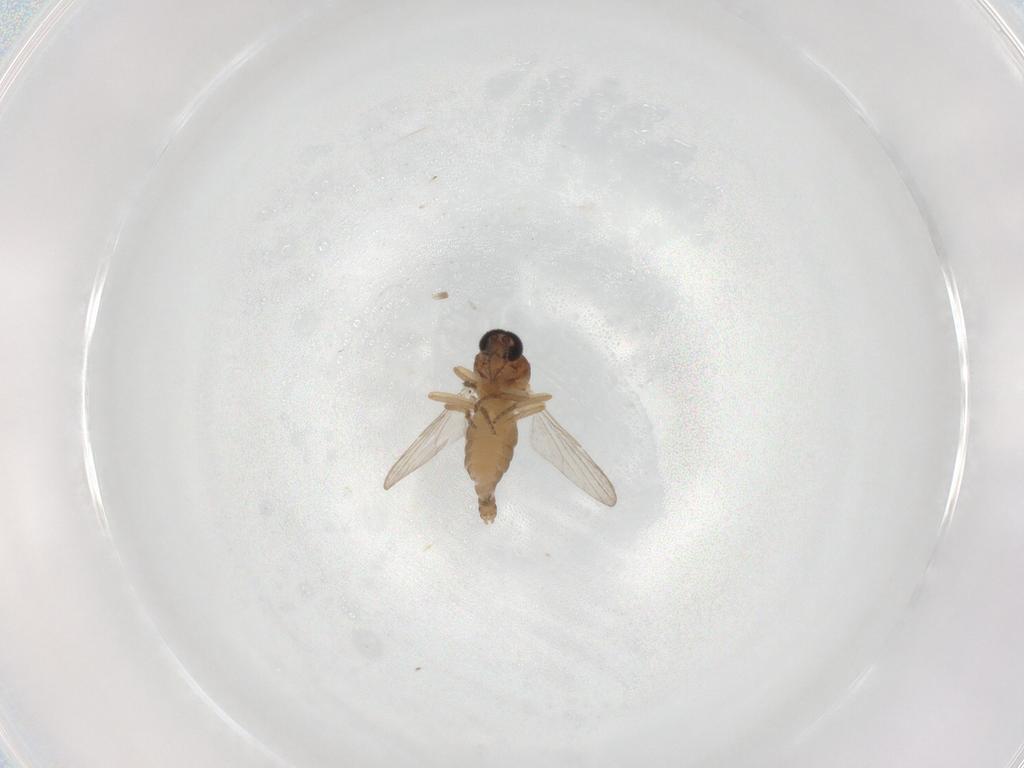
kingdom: Animalia
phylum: Arthropoda
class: Insecta
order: Diptera
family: Ceratopogonidae
